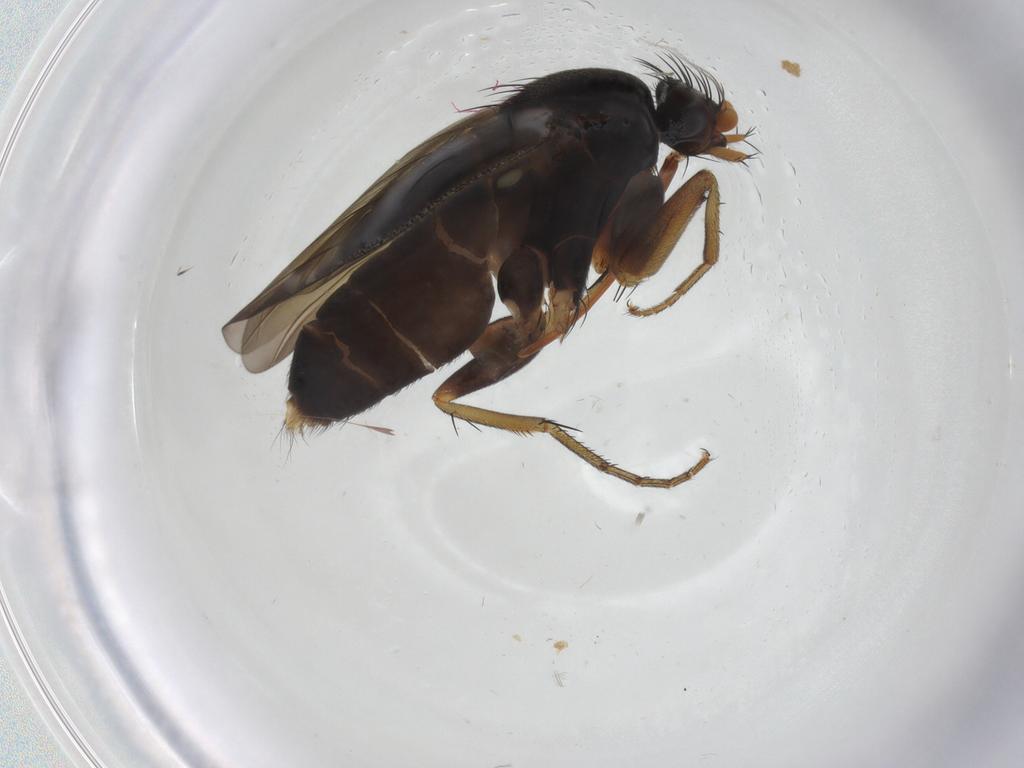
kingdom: Animalia
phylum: Arthropoda
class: Insecta
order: Diptera
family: Phoridae
